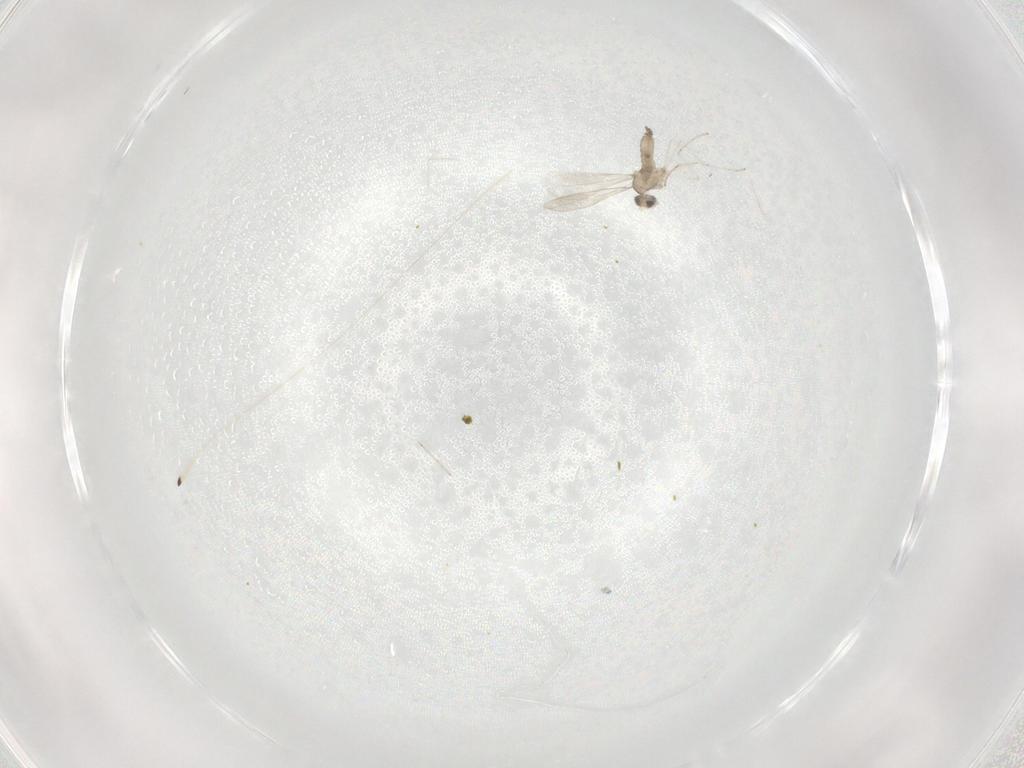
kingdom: Animalia
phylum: Arthropoda
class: Insecta
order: Diptera
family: Cecidomyiidae
